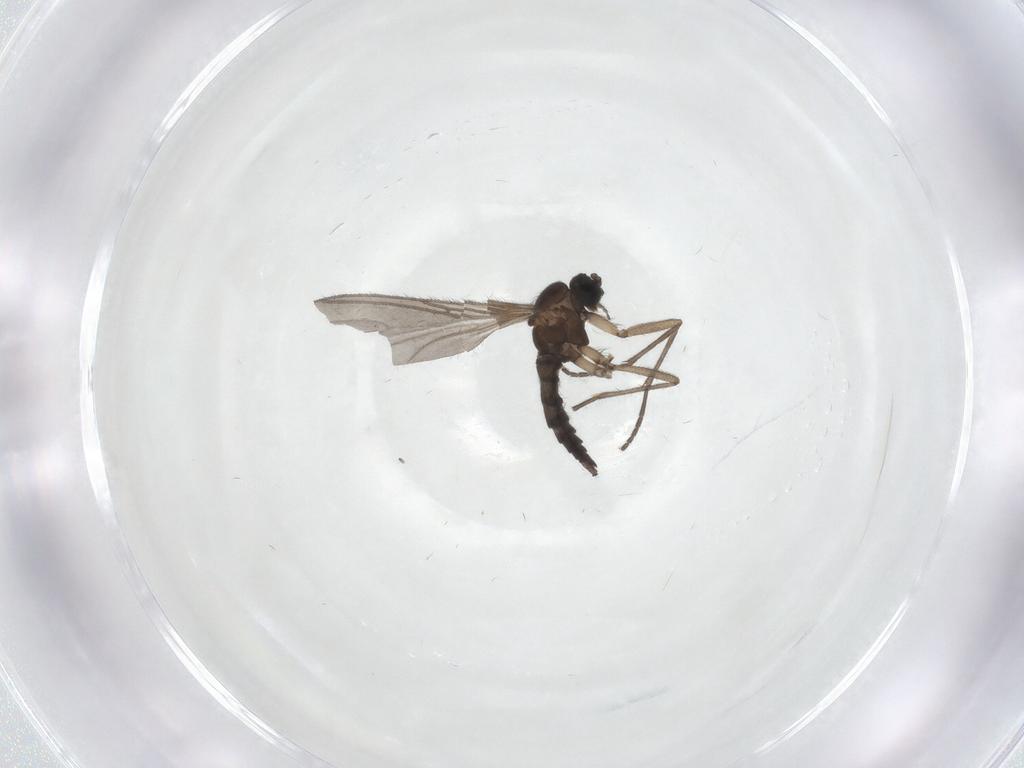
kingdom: Animalia
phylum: Arthropoda
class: Insecta
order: Diptera
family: Sciaridae
